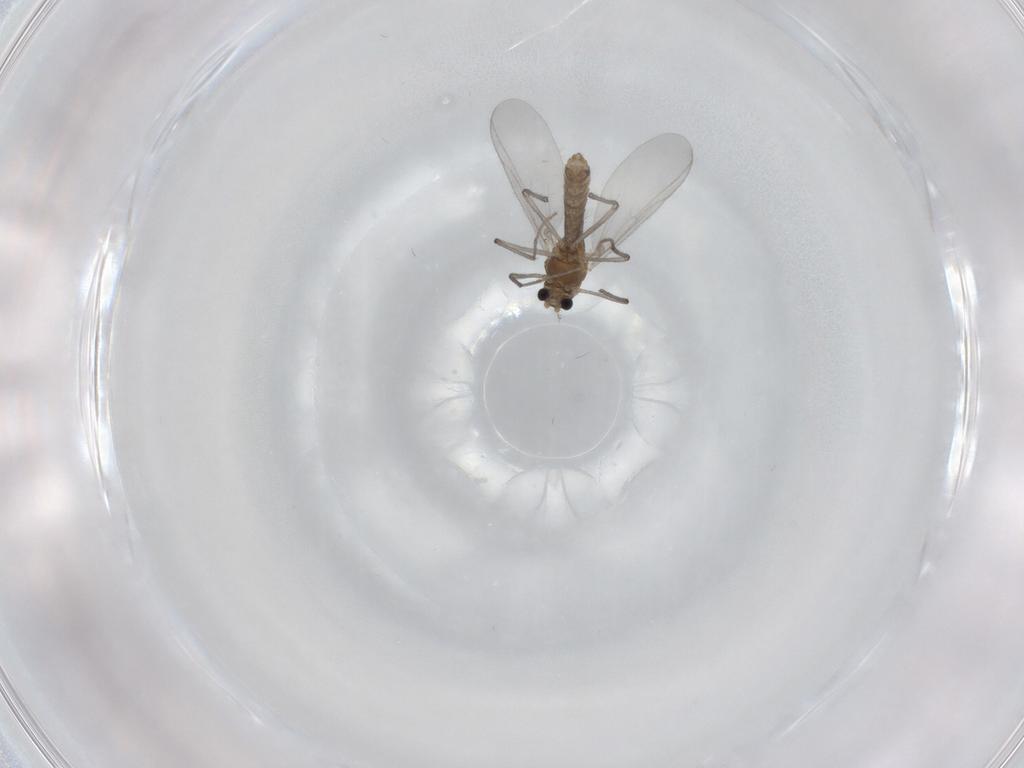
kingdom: Animalia
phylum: Arthropoda
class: Insecta
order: Diptera
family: Chironomidae
